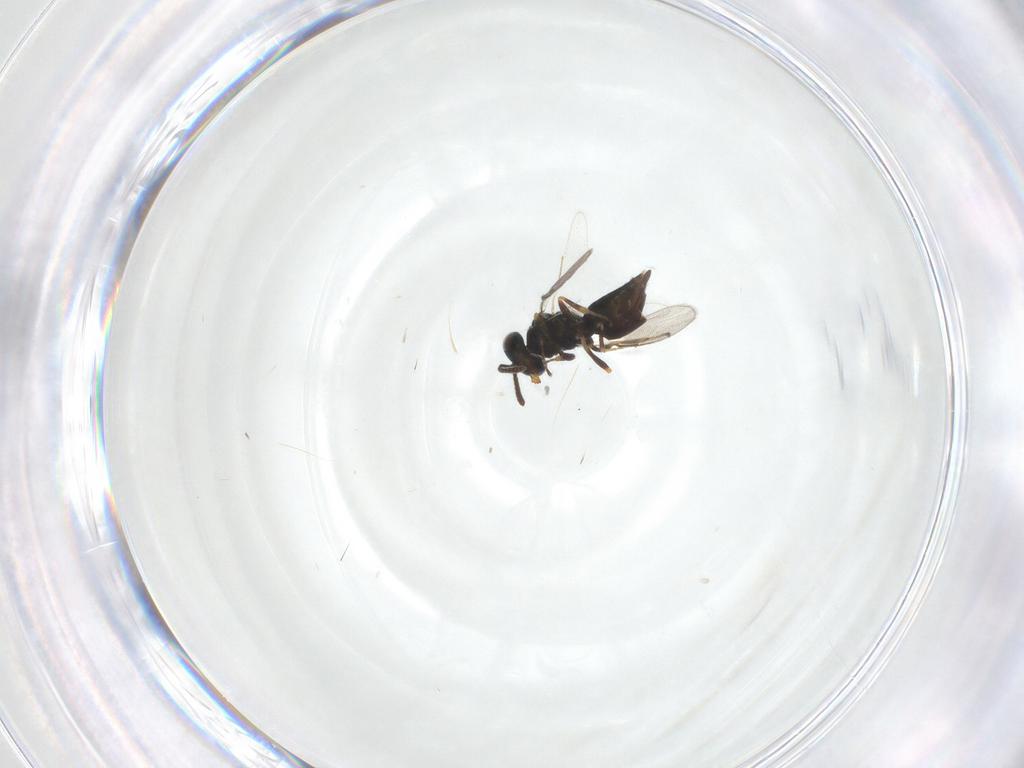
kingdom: Animalia
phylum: Arthropoda
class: Insecta
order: Hymenoptera
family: Pteromalidae
